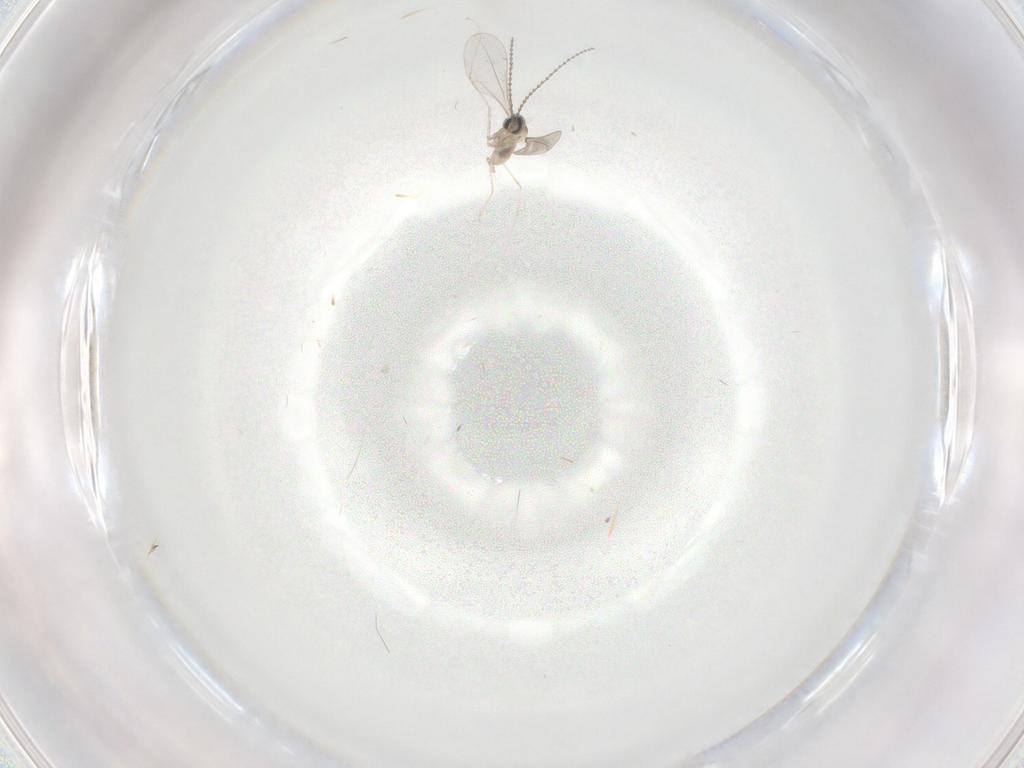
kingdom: Animalia
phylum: Arthropoda
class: Insecta
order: Diptera
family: Cecidomyiidae
